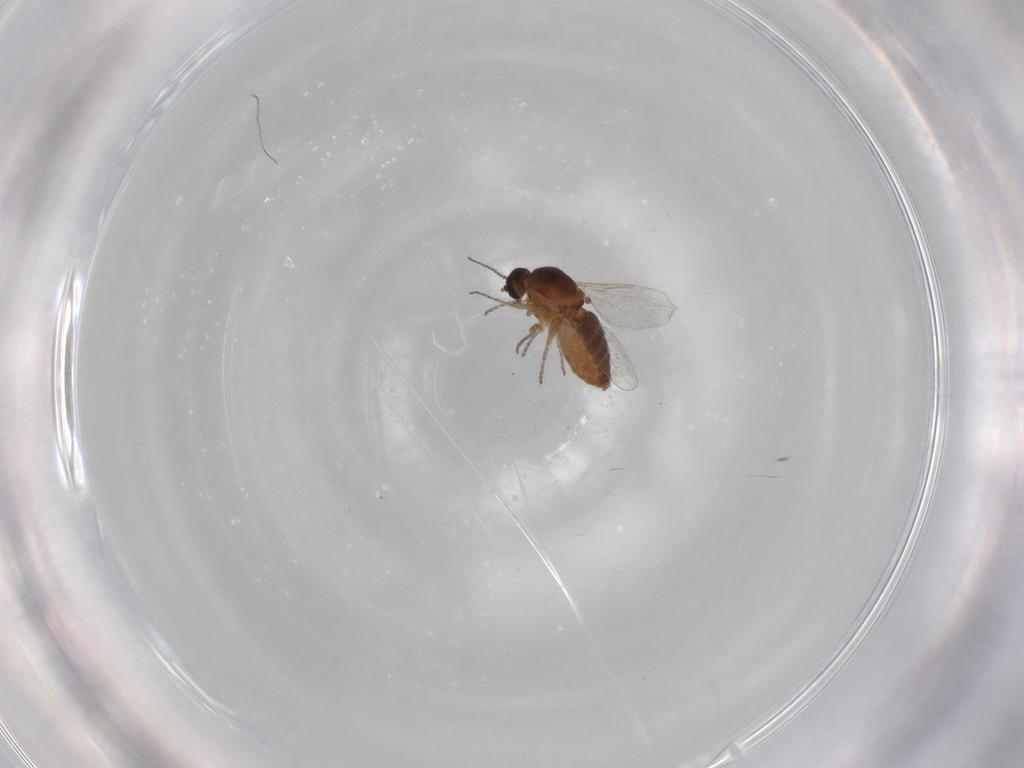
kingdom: Animalia
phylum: Arthropoda
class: Insecta
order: Diptera
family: Ceratopogonidae
